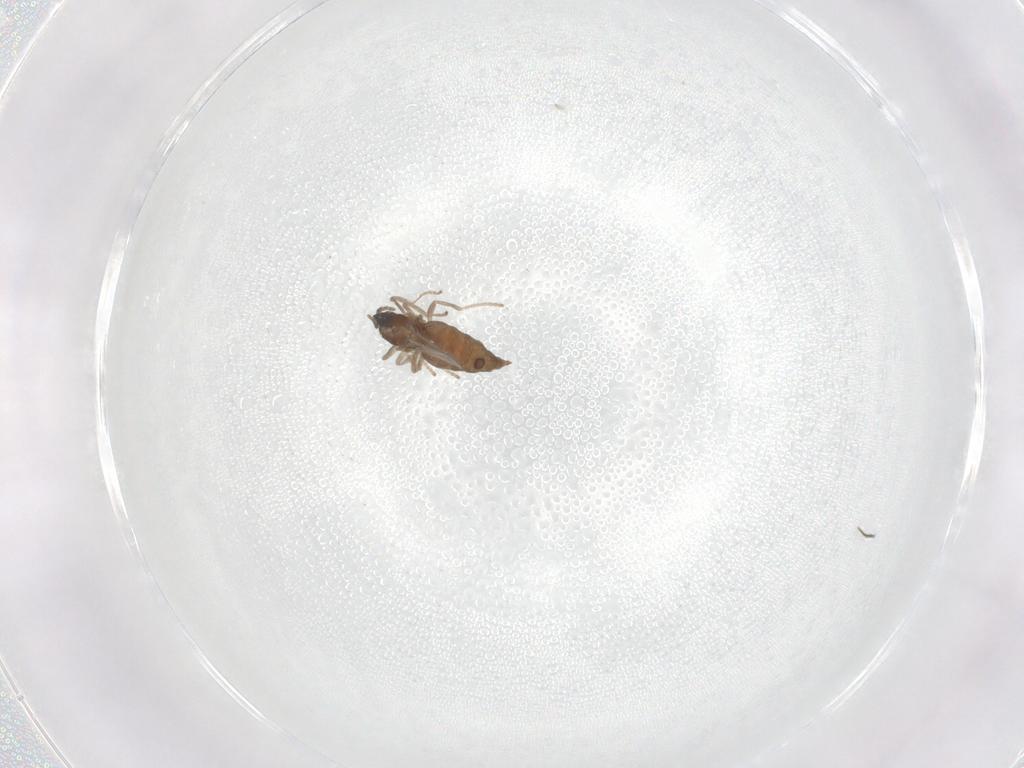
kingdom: Animalia
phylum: Arthropoda
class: Insecta
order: Diptera
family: Cecidomyiidae
